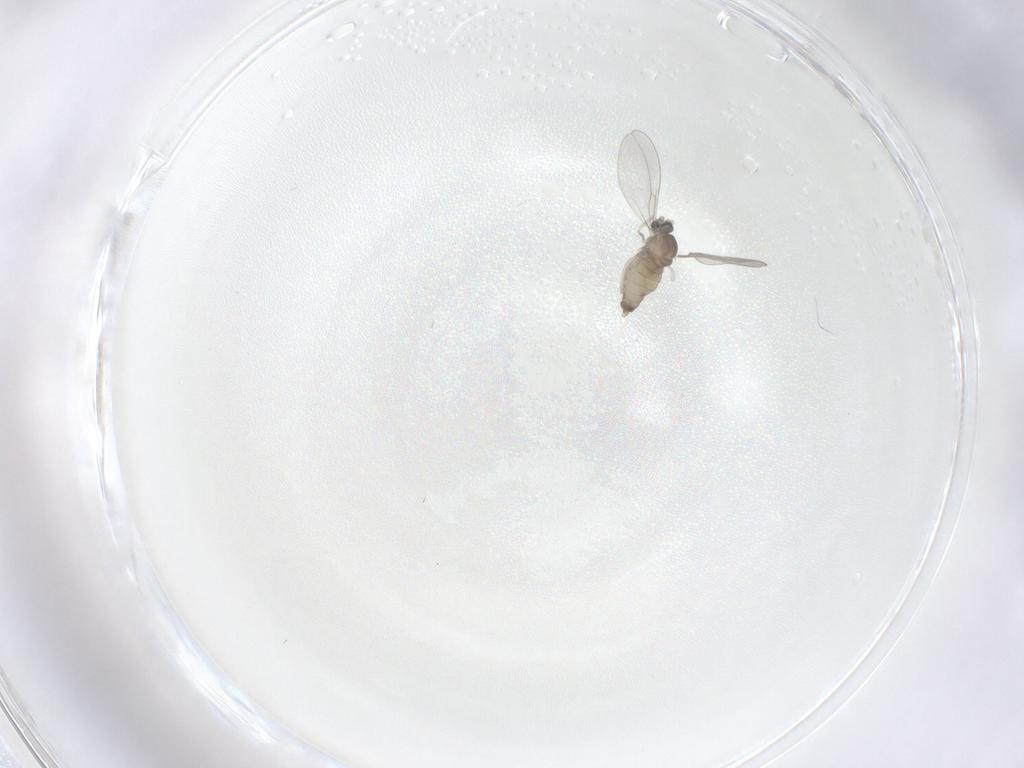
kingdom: Animalia
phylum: Arthropoda
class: Insecta
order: Diptera
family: Cecidomyiidae
